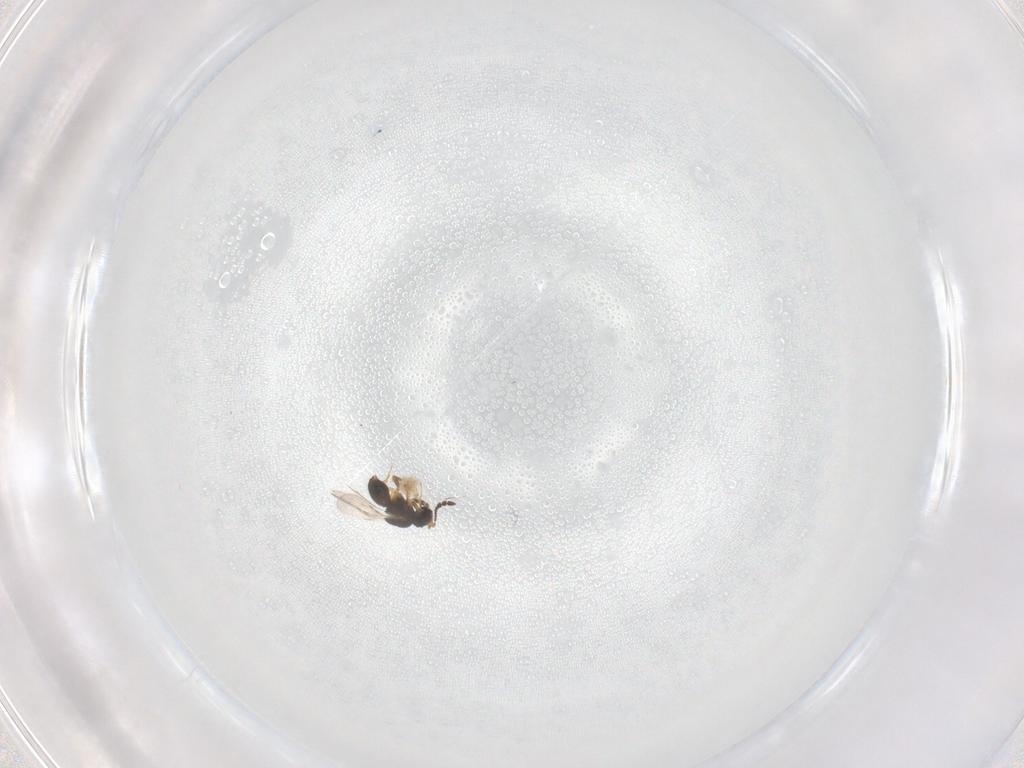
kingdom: Animalia
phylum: Arthropoda
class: Insecta
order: Hymenoptera
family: Mymaridae
